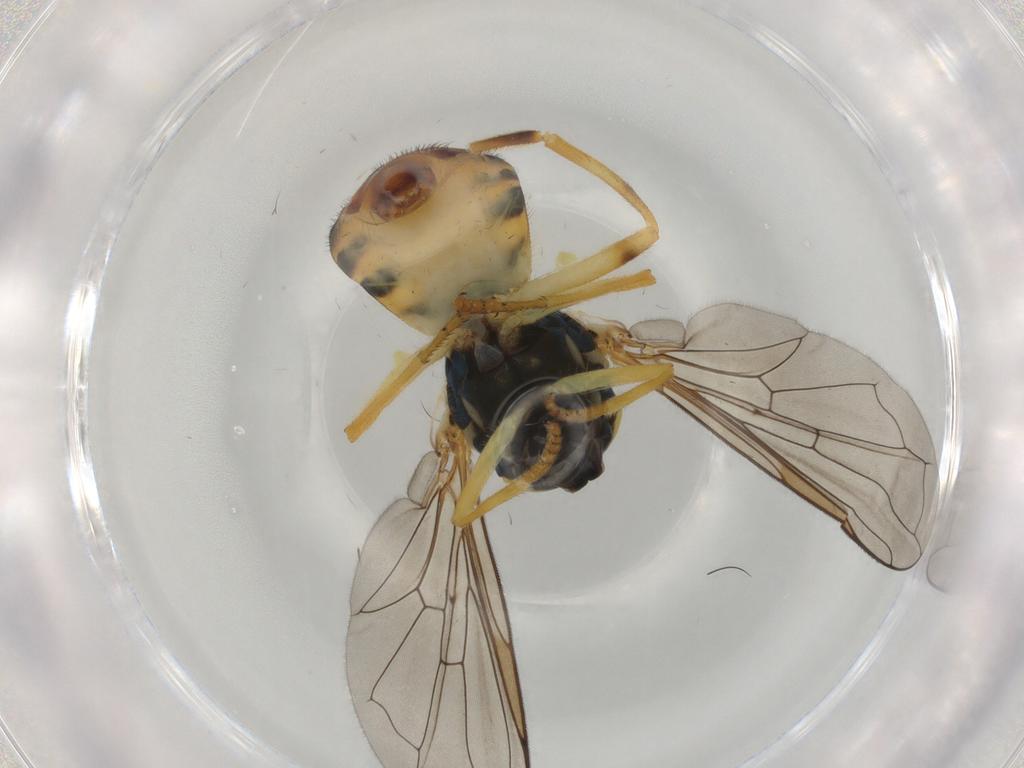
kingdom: Animalia
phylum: Arthropoda
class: Insecta
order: Diptera
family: Syrphidae
